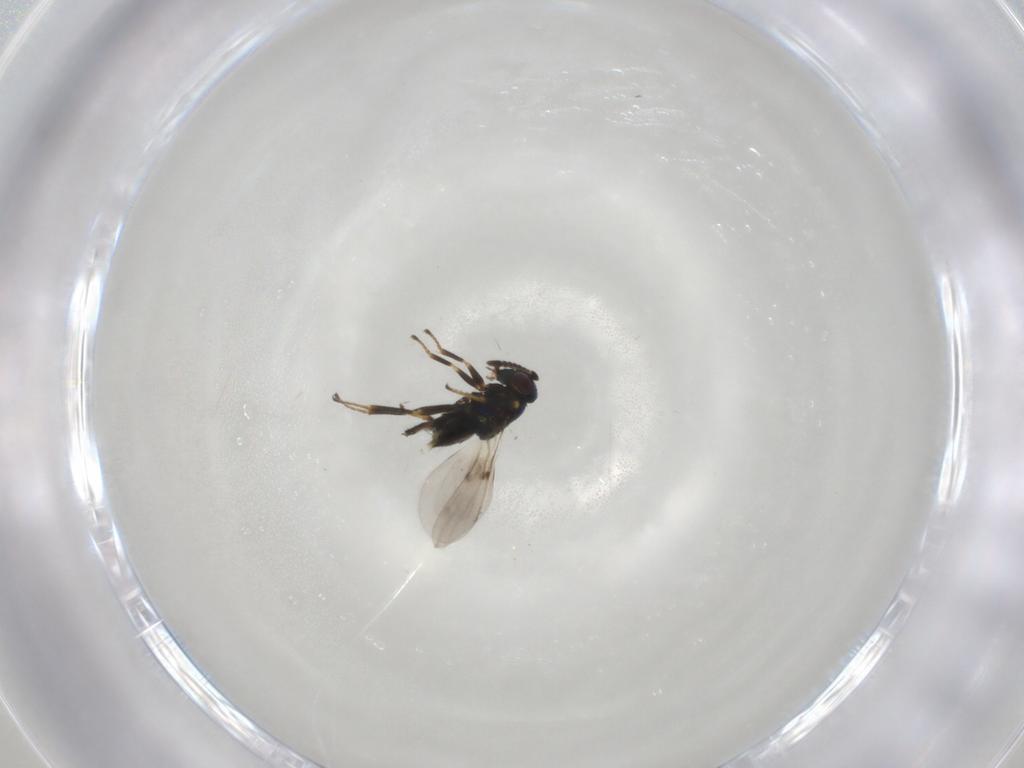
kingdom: Animalia
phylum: Arthropoda
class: Insecta
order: Hymenoptera
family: Encyrtidae
